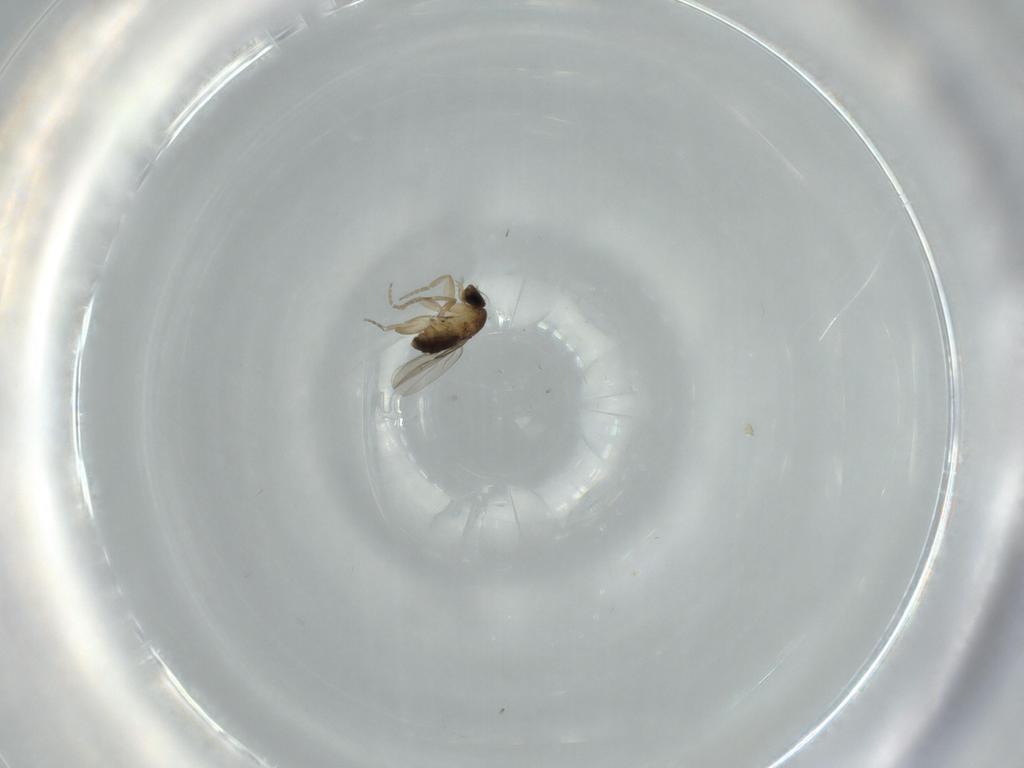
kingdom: Animalia
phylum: Arthropoda
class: Insecta
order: Diptera
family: Phoridae
